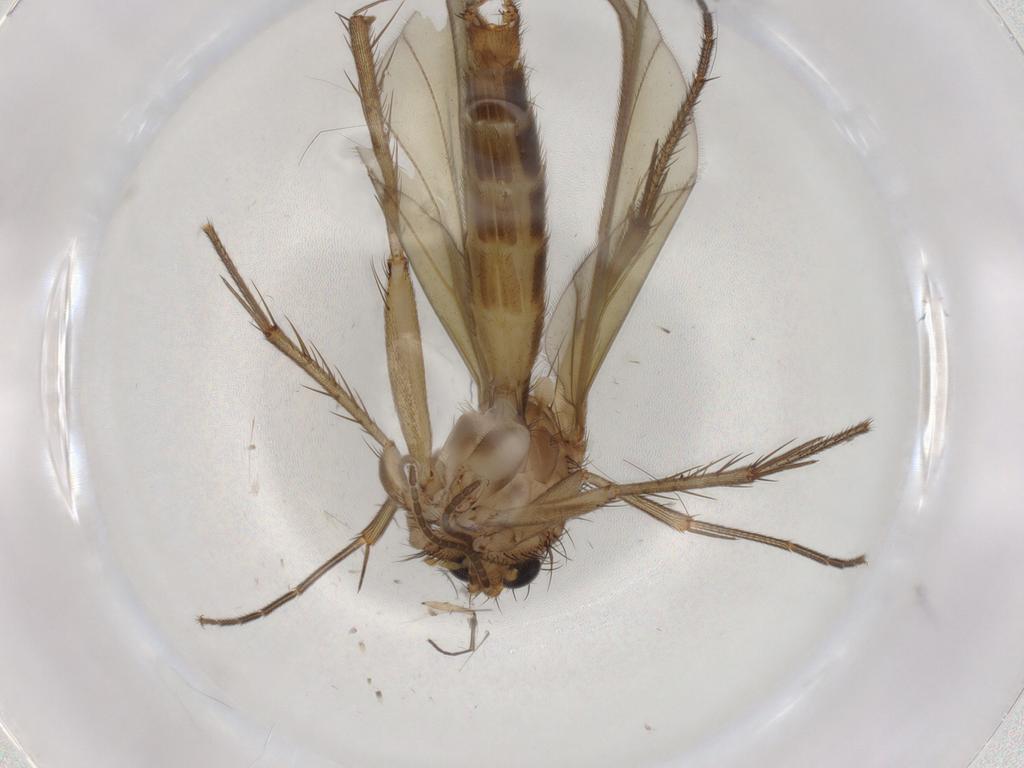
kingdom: Animalia
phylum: Arthropoda
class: Insecta
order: Diptera
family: Mycetophilidae
